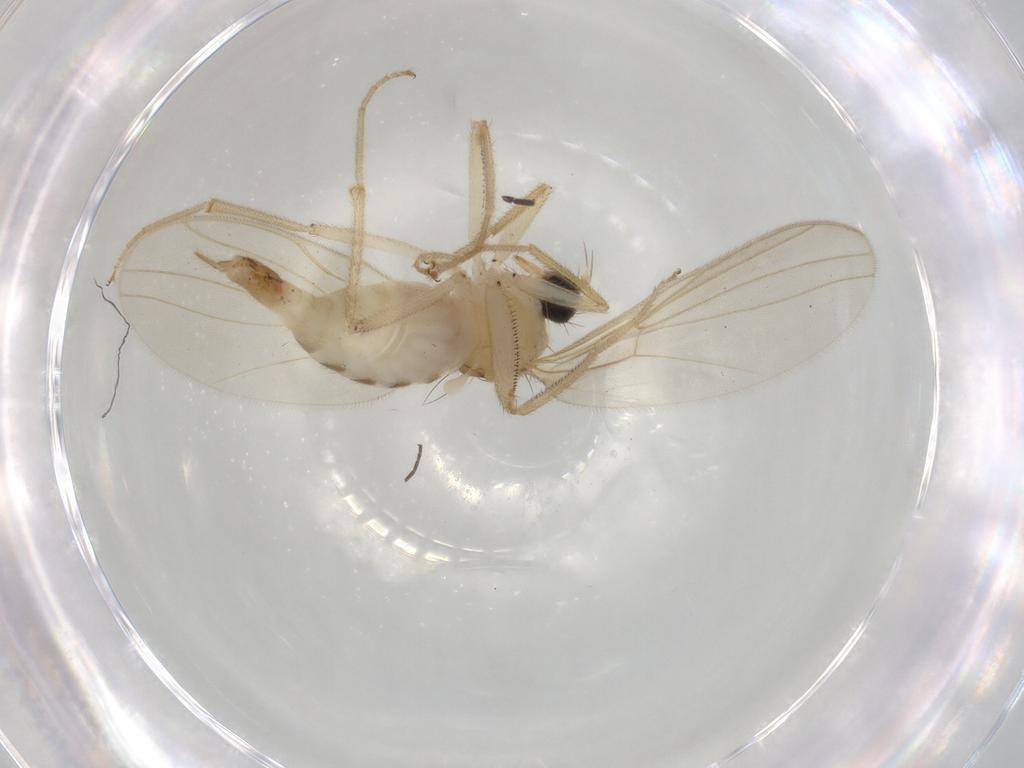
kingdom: Animalia
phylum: Arthropoda
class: Insecta
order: Diptera
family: Hybotidae
